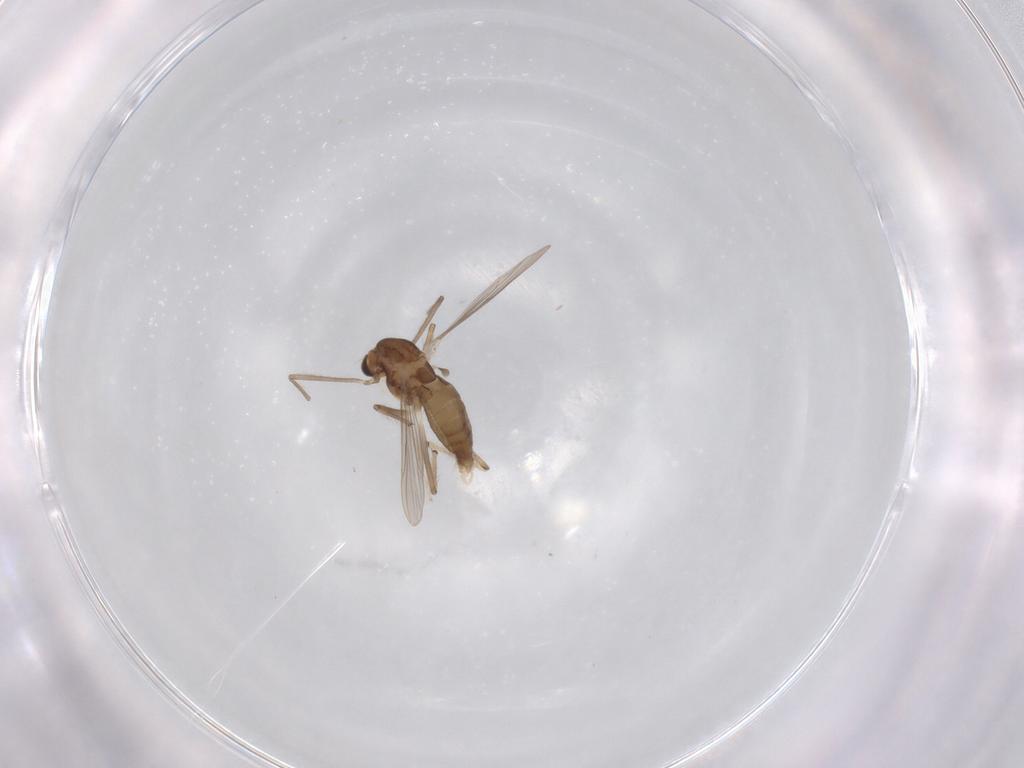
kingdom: Animalia
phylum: Arthropoda
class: Insecta
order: Diptera
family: Chironomidae
